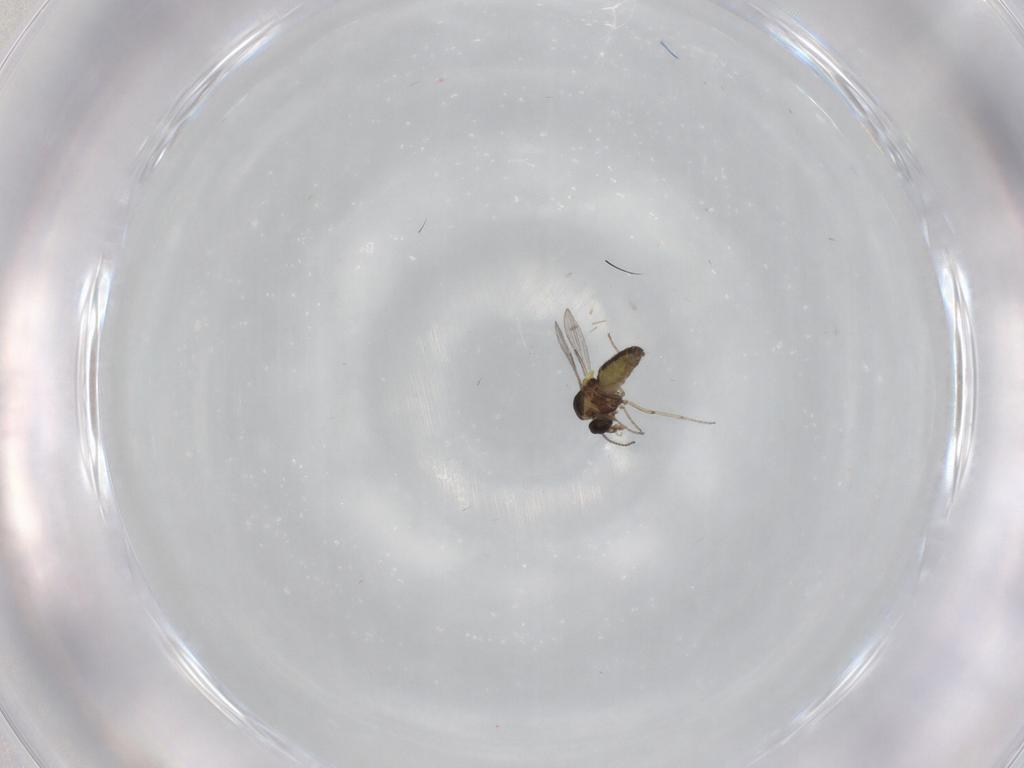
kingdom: Animalia
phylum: Arthropoda
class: Insecta
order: Diptera
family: Ceratopogonidae
